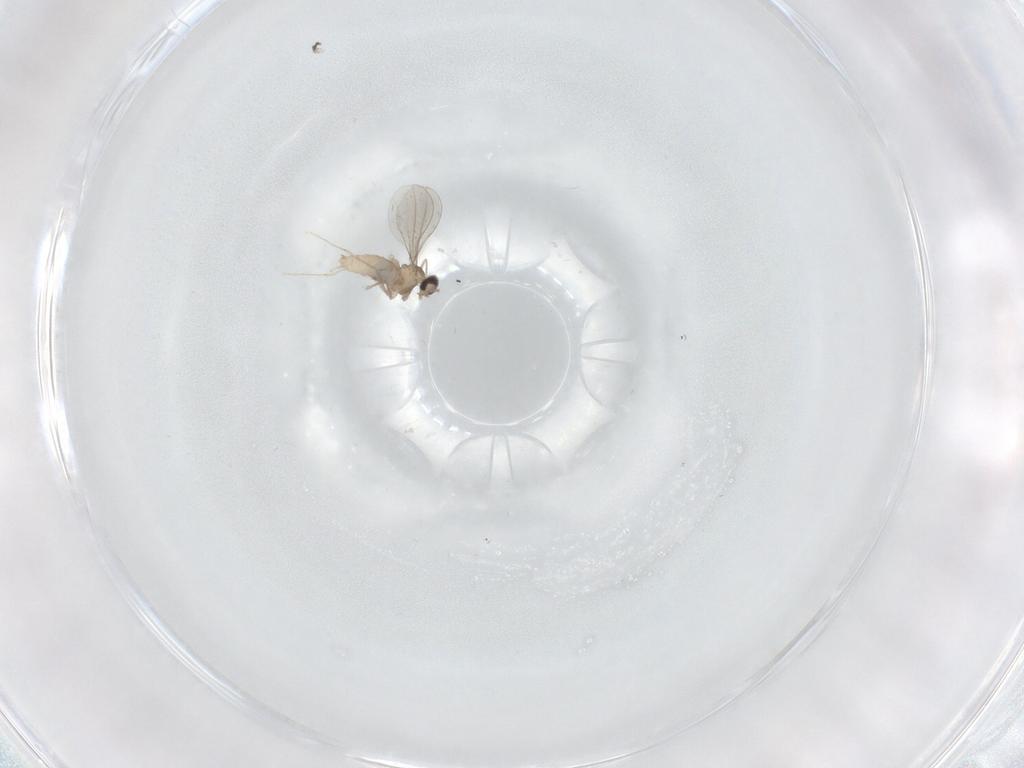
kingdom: Animalia
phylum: Arthropoda
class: Insecta
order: Diptera
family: Cecidomyiidae
